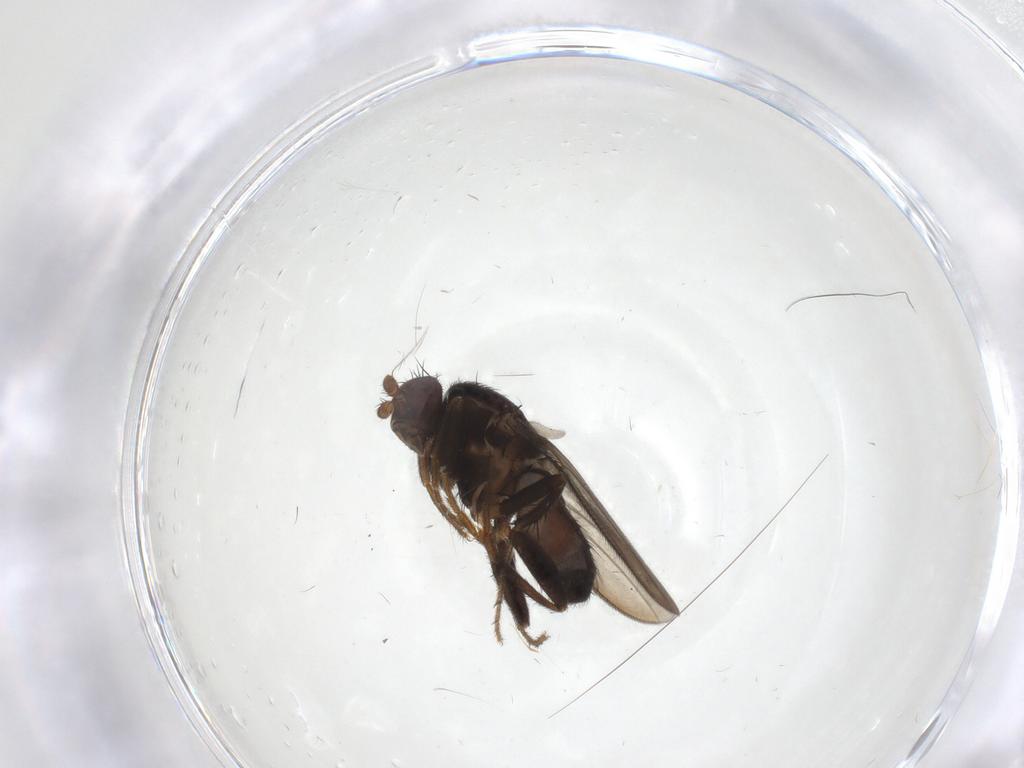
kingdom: Animalia
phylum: Arthropoda
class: Insecta
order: Diptera
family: Sphaeroceridae
